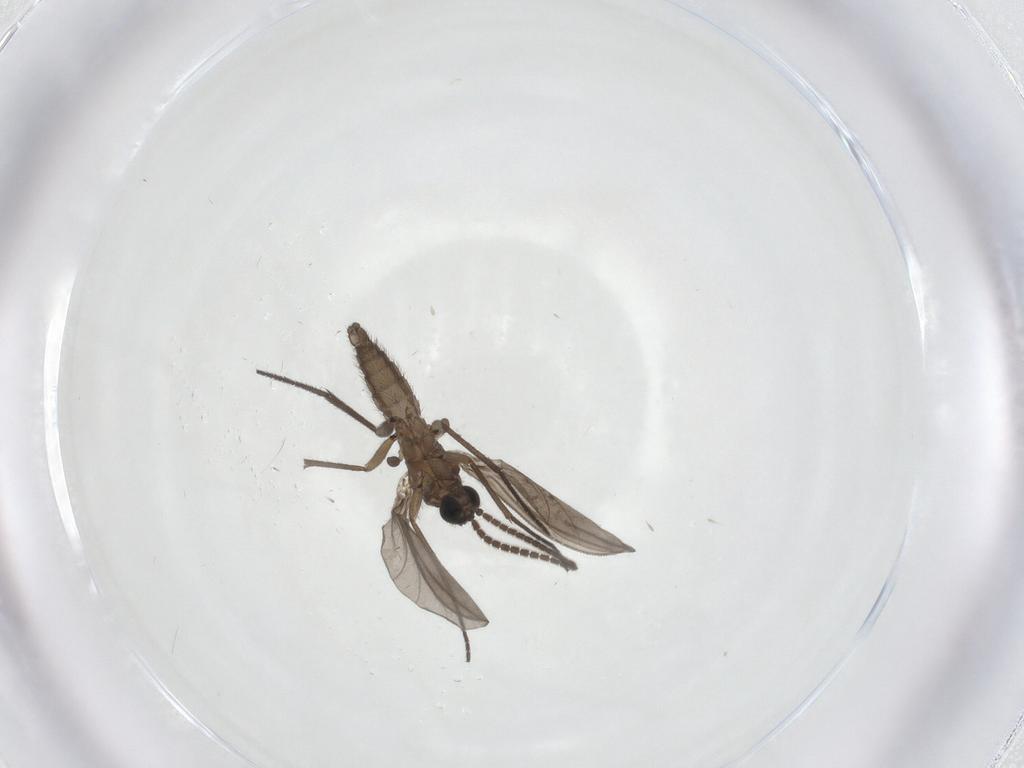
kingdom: Animalia
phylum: Arthropoda
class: Insecta
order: Diptera
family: Sciaridae
